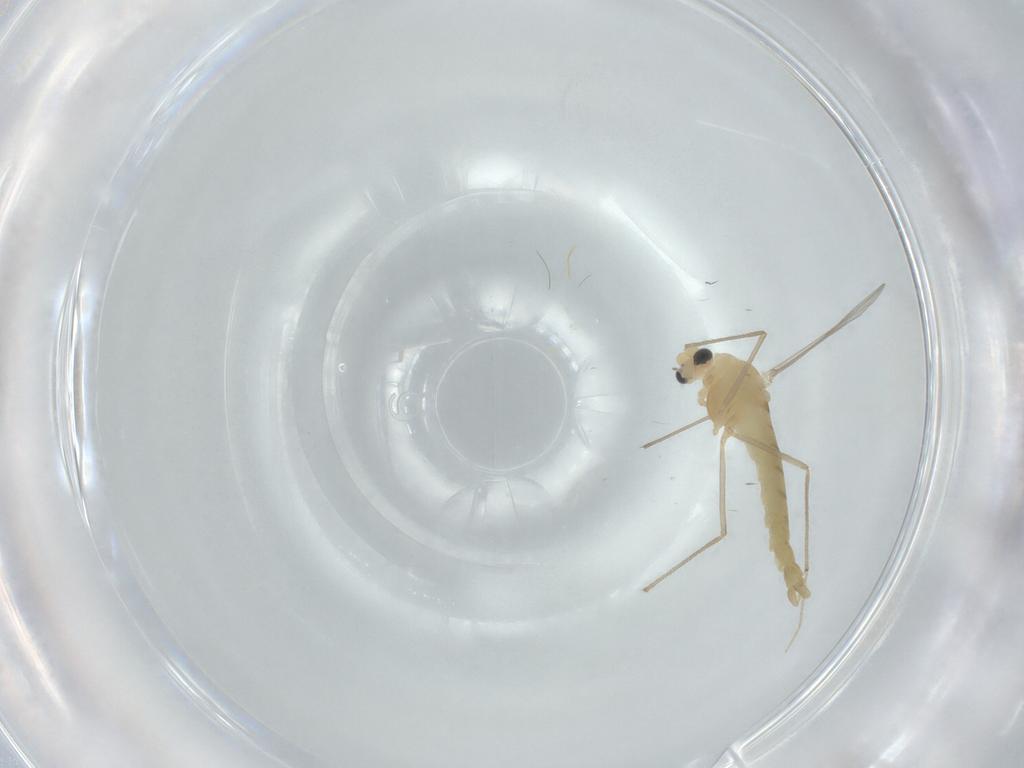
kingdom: Animalia
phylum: Arthropoda
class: Insecta
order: Diptera
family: Chironomidae
